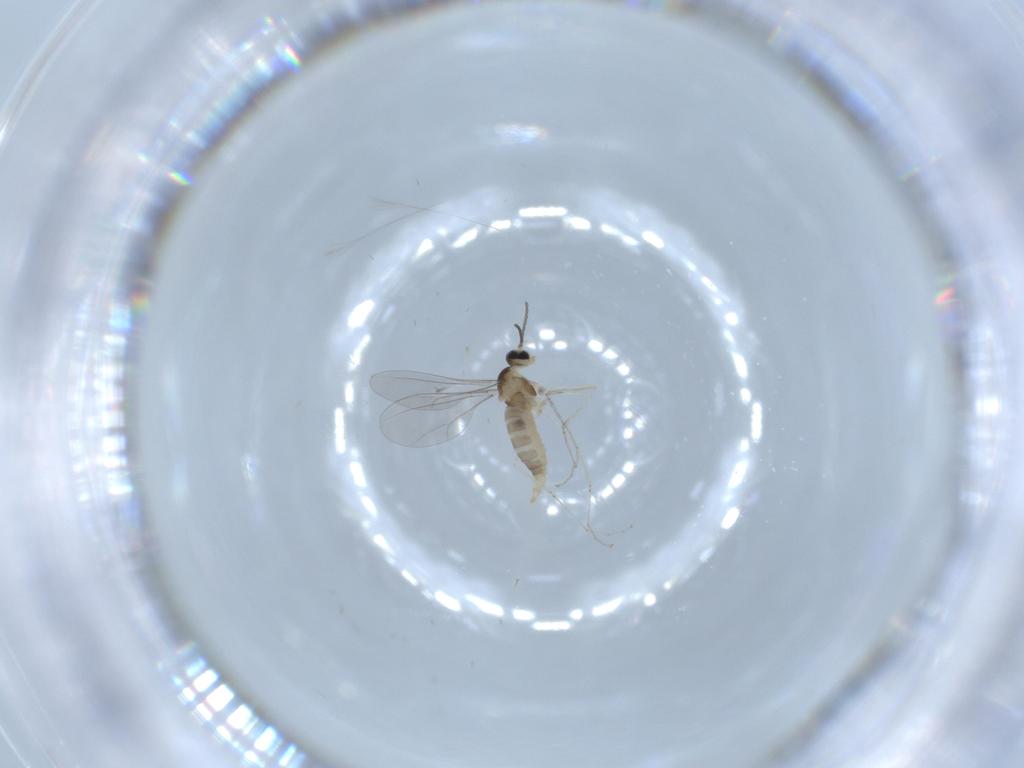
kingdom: Animalia
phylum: Arthropoda
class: Insecta
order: Diptera
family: Cecidomyiidae
